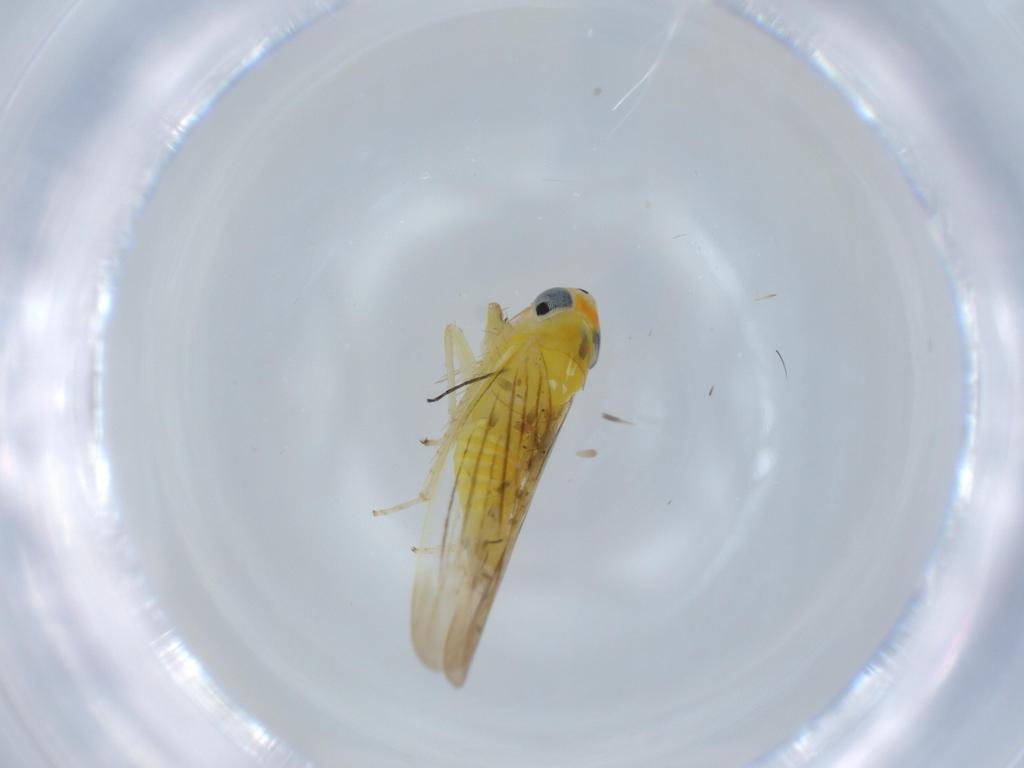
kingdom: Animalia
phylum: Arthropoda
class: Insecta
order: Hemiptera
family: Cicadellidae
